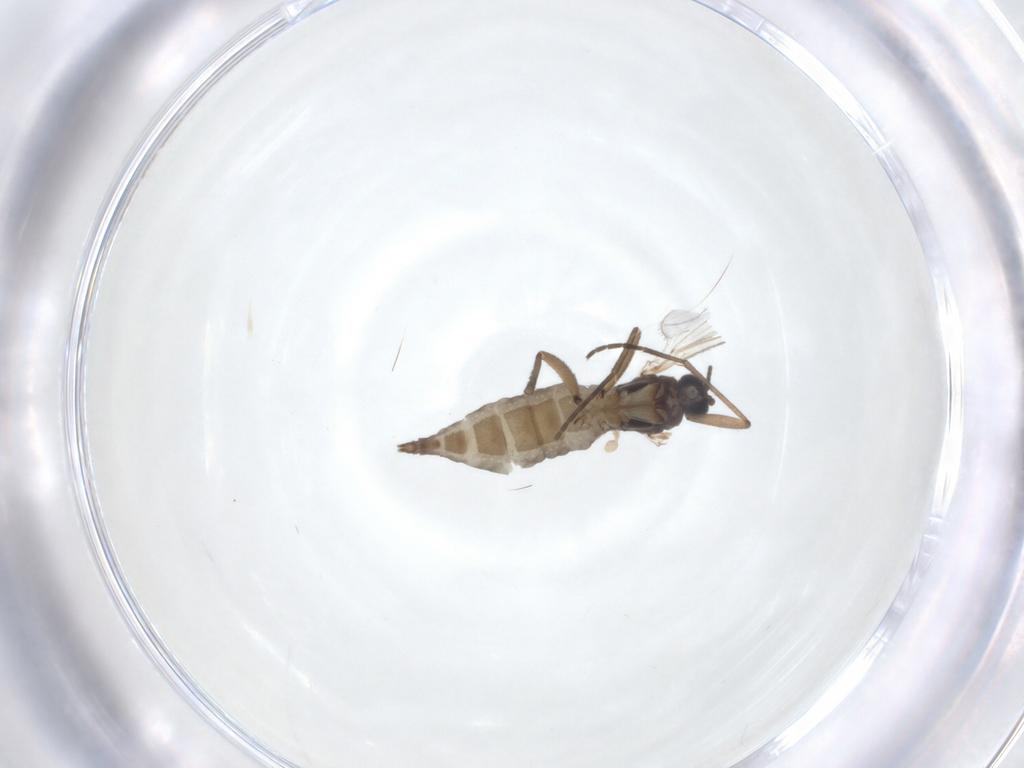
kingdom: Animalia
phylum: Arthropoda
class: Insecta
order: Diptera
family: Sciaridae
